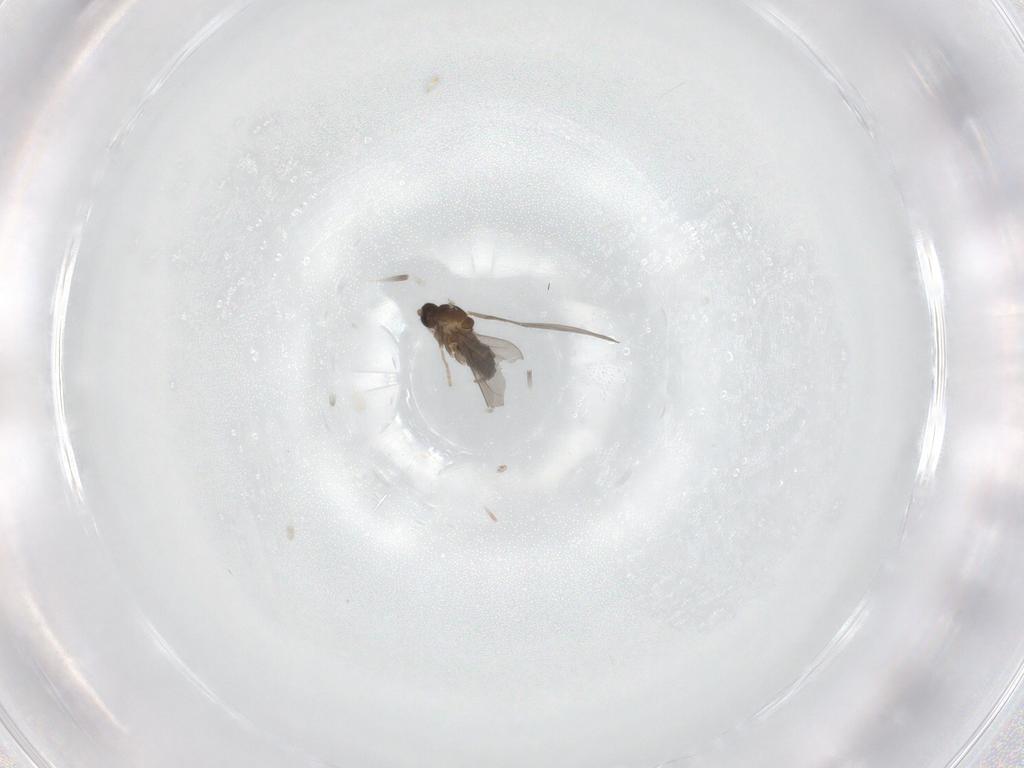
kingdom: Animalia
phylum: Arthropoda
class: Insecta
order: Diptera
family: Cecidomyiidae
